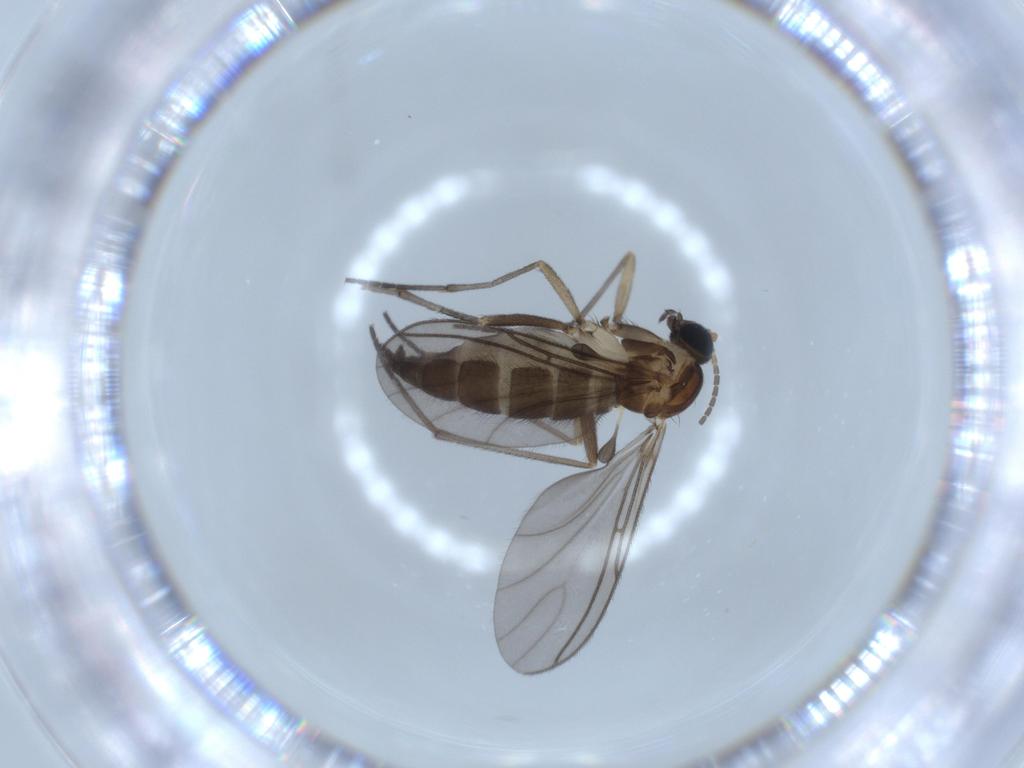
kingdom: Animalia
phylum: Arthropoda
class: Insecta
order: Diptera
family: Sciaridae
